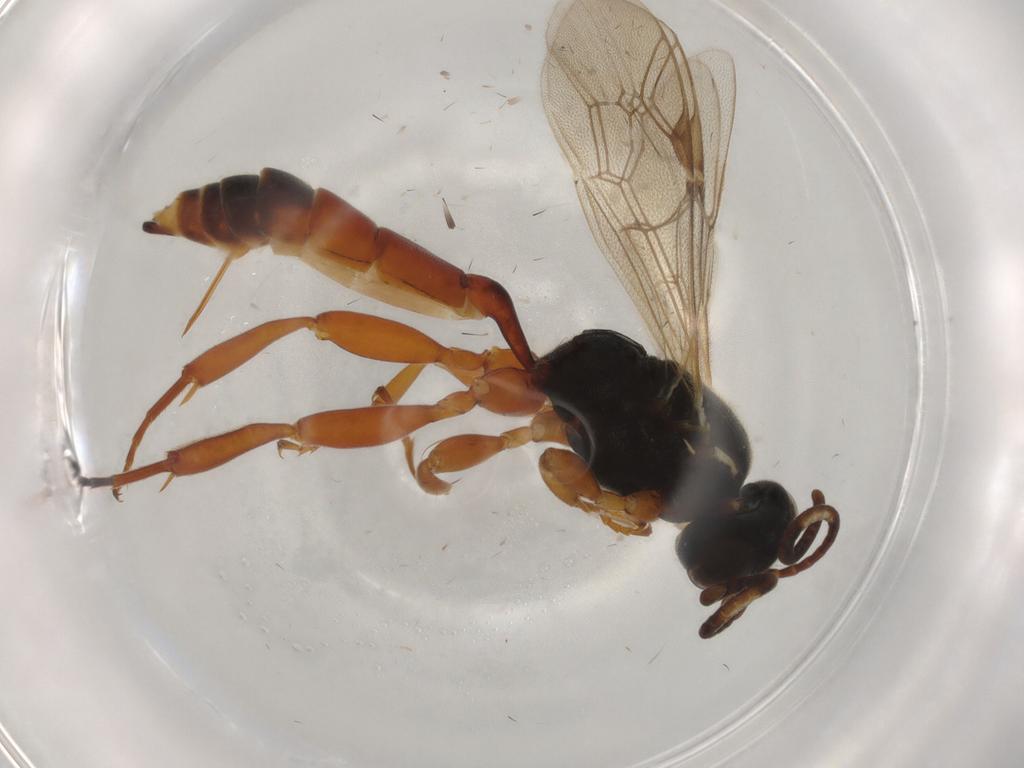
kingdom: Animalia
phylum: Arthropoda
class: Insecta
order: Hymenoptera
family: Ichneumonidae
